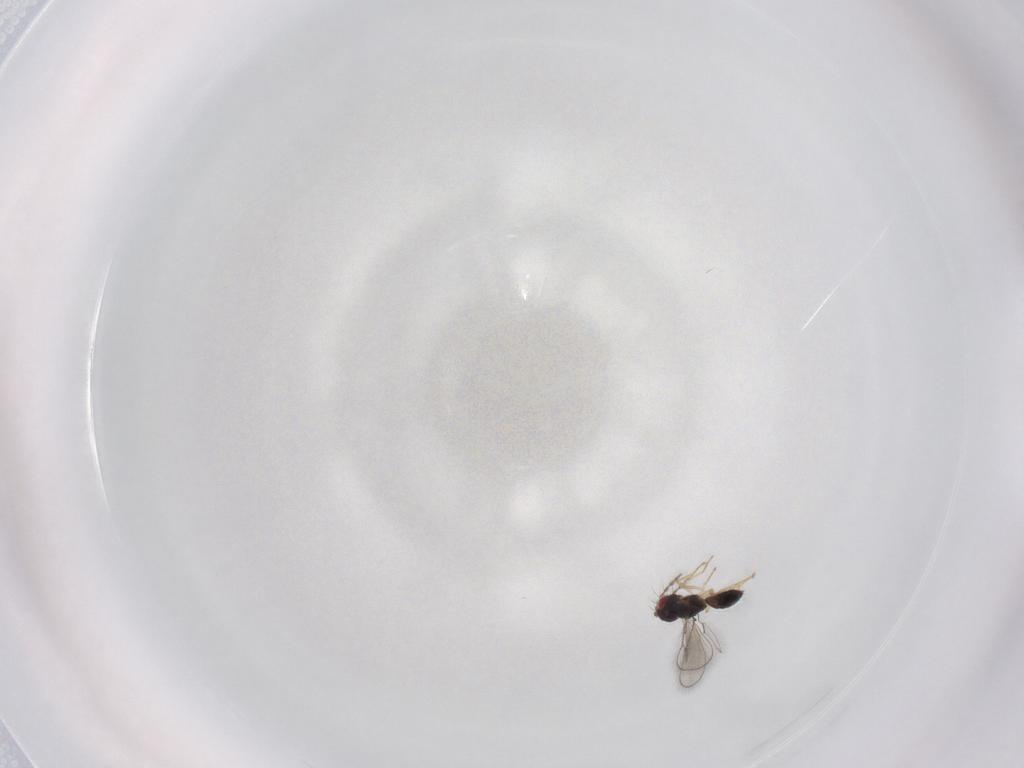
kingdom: Animalia
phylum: Arthropoda
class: Insecta
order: Hymenoptera
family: Eulophidae
